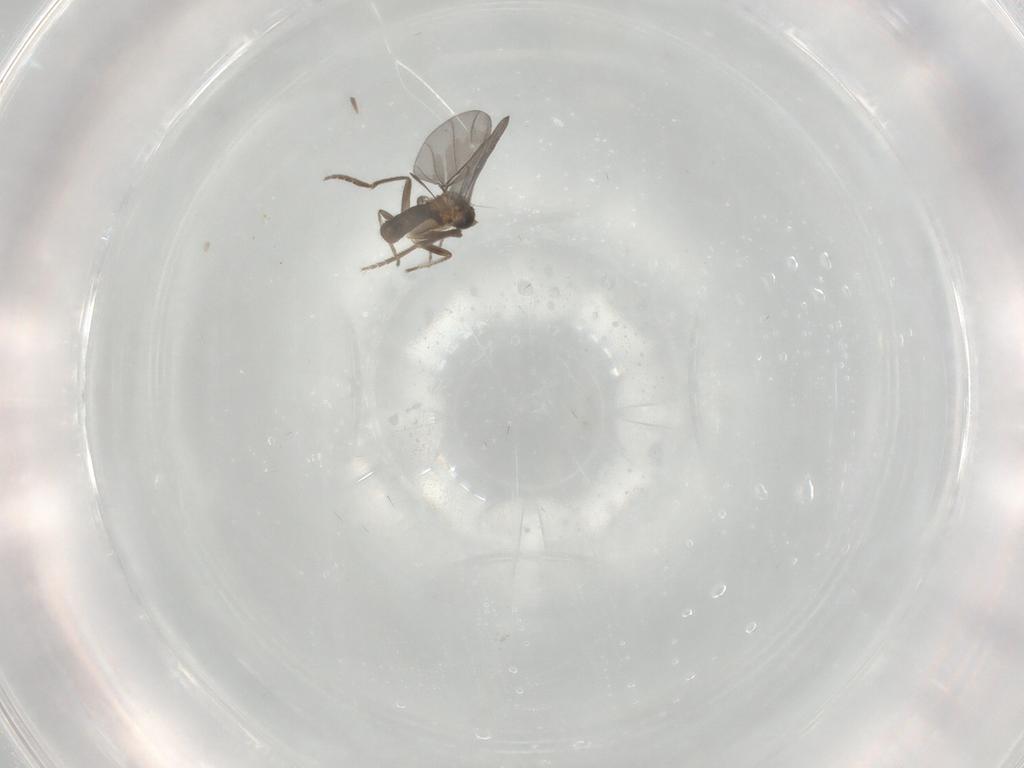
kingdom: Animalia
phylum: Arthropoda
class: Insecta
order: Diptera
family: Phoridae
